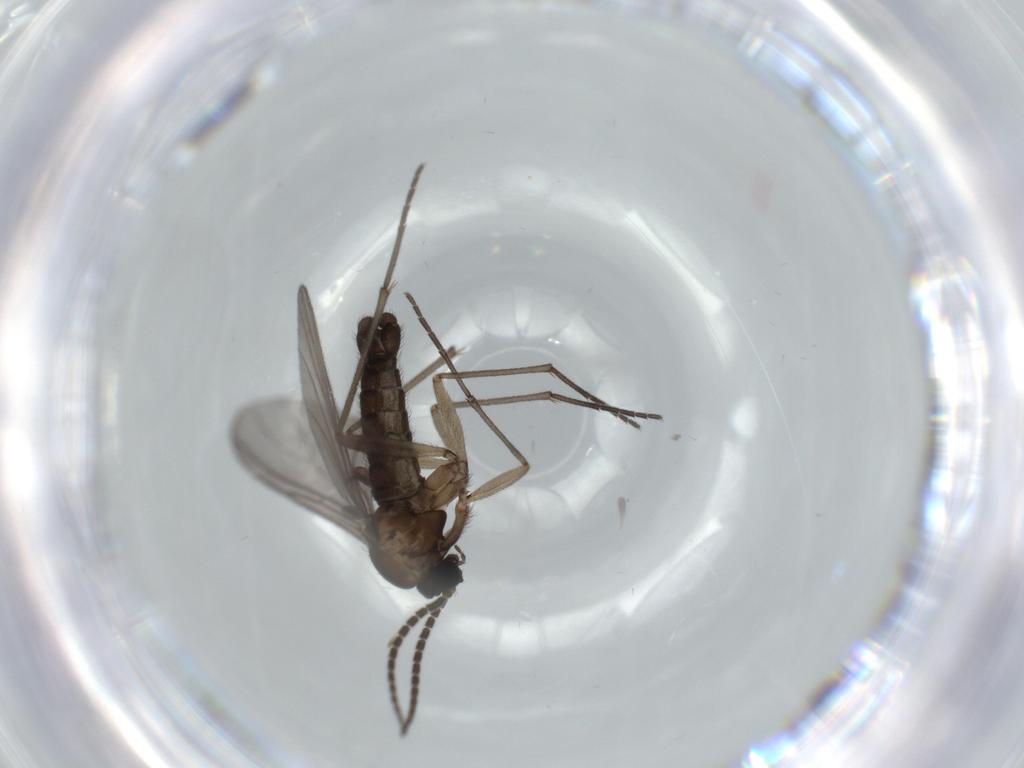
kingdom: Animalia
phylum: Arthropoda
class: Insecta
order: Diptera
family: Sciaridae
